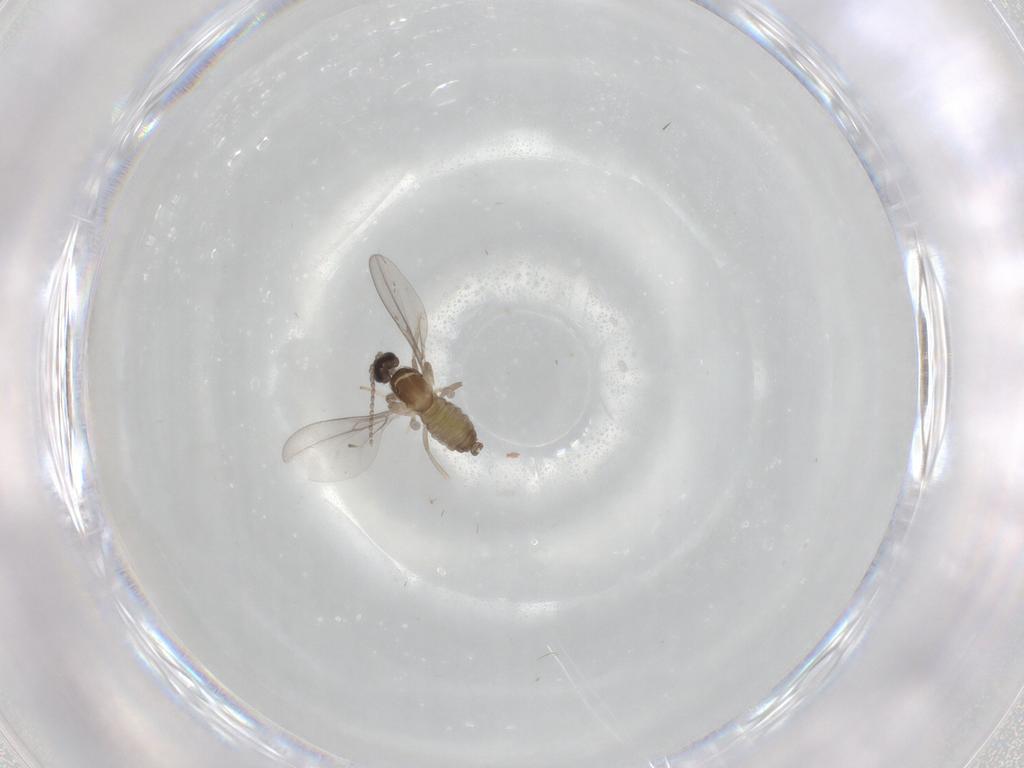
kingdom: Animalia
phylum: Arthropoda
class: Insecta
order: Diptera
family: Cecidomyiidae
